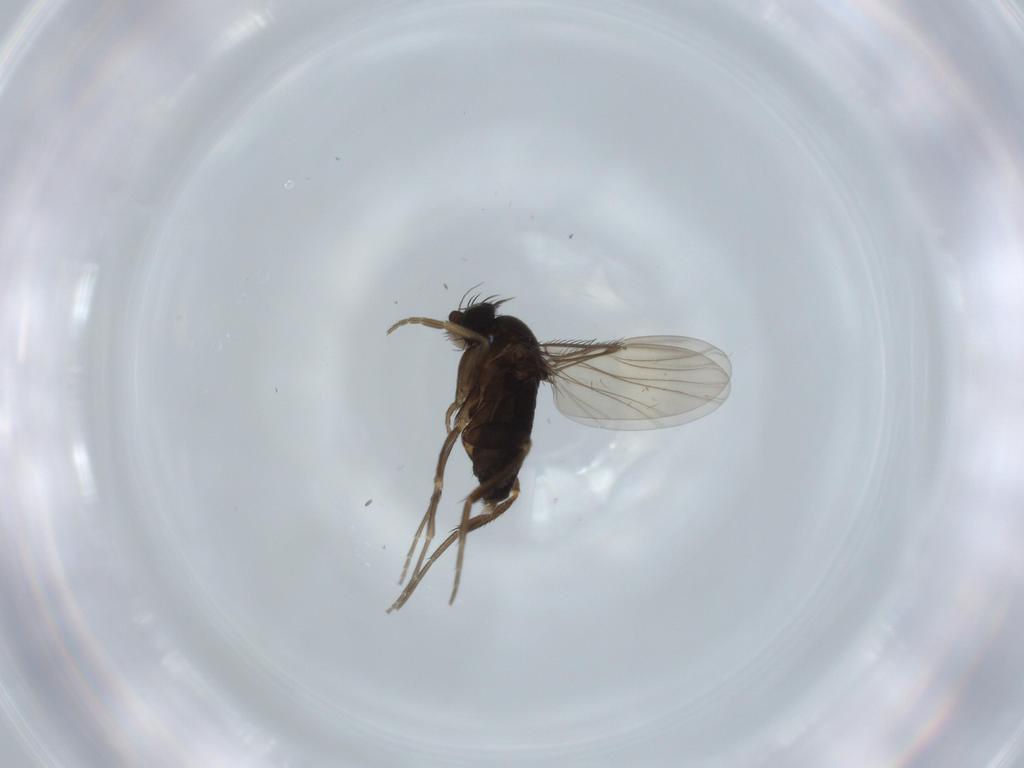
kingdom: Animalia
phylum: Arthropoda
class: Insecta
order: Diptera
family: Phoridae
